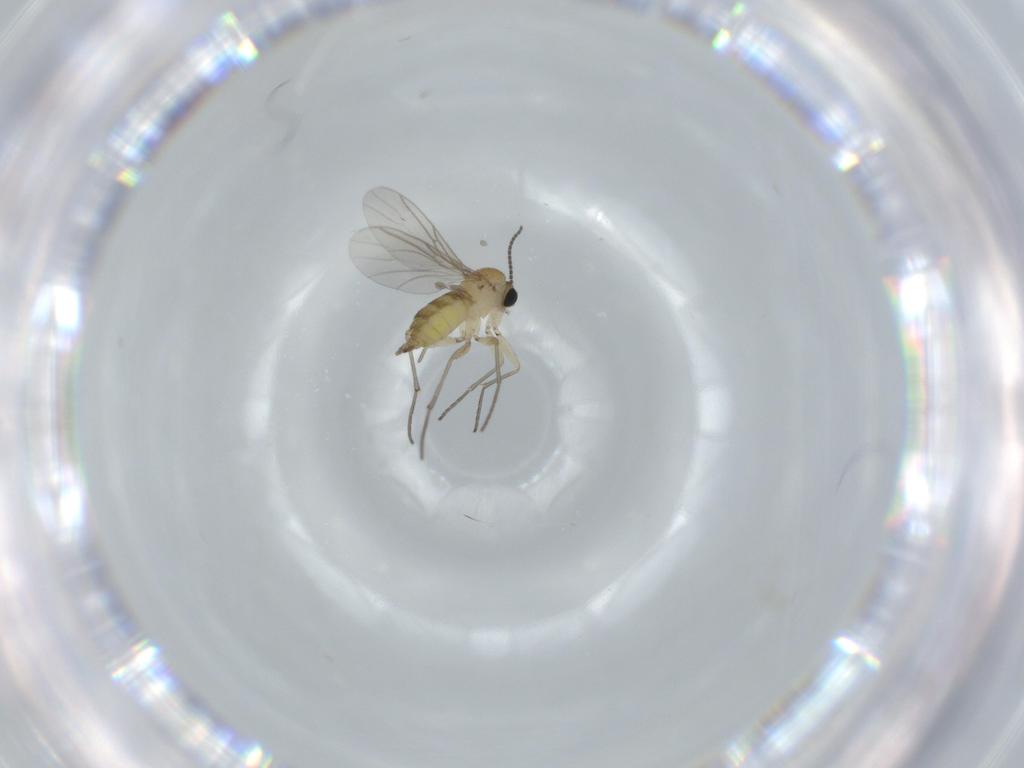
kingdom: Animalia
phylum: Arthropoda
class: Insecta
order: Diptera
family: Sciaridae
